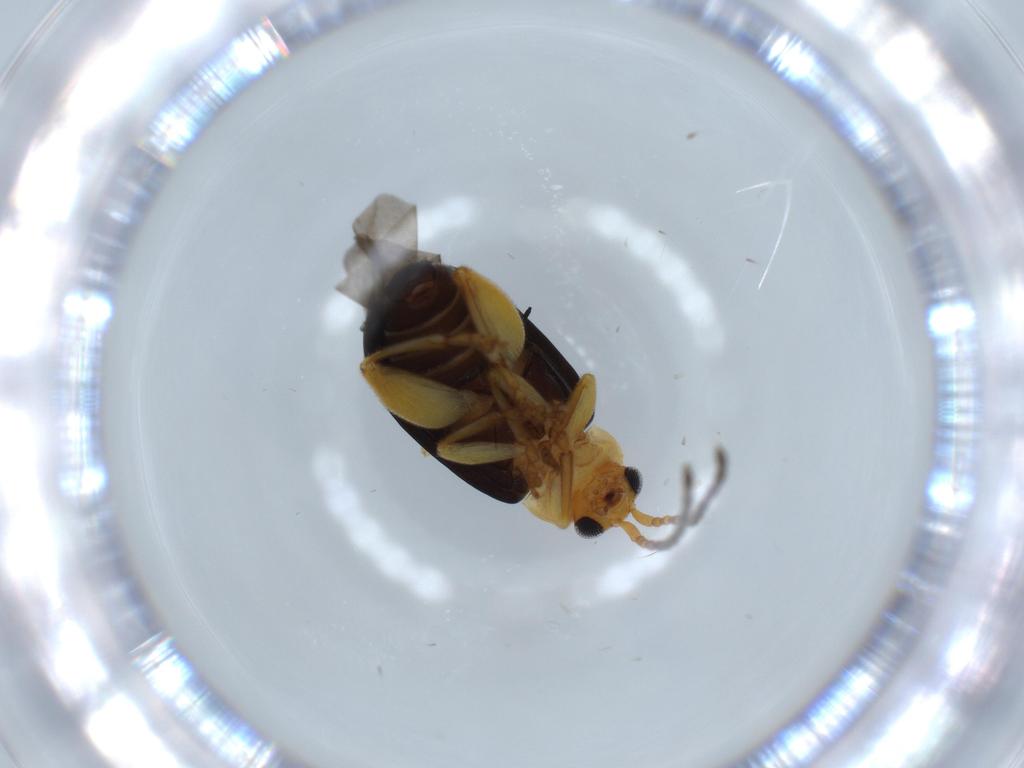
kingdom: Animalia
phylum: Arthropoda
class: Insecta
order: Coleoptera
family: Chrysomelidae
